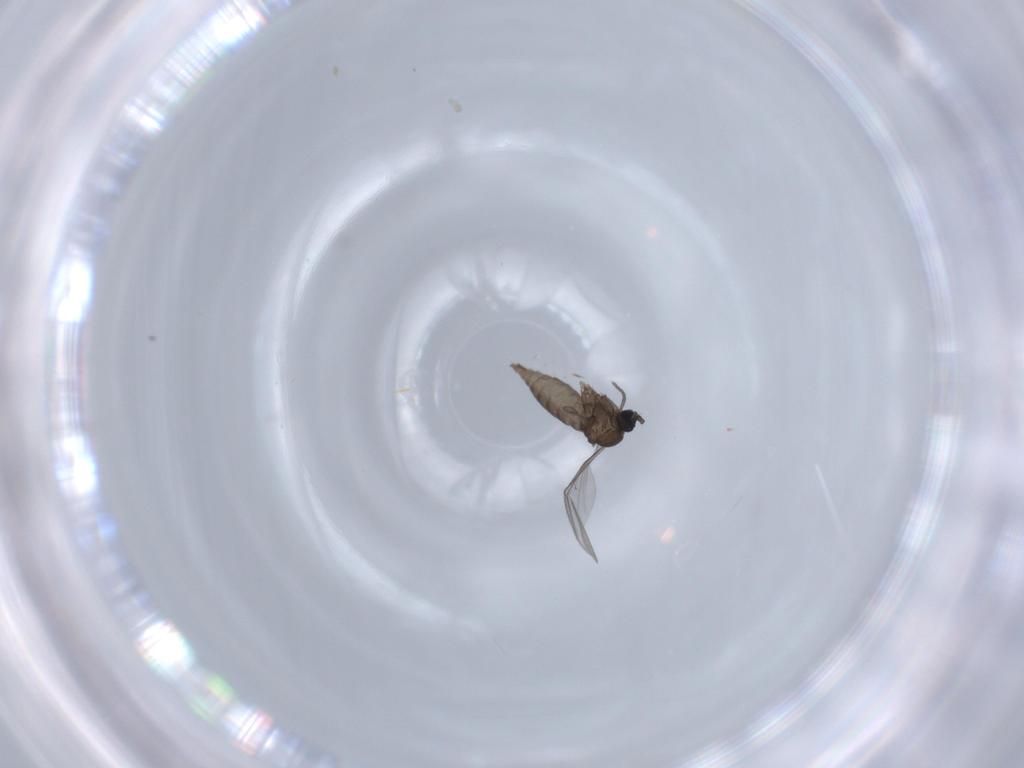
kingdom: Animalia
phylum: Arthropoda
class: Insecta
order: Diptera
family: Sciaridae
